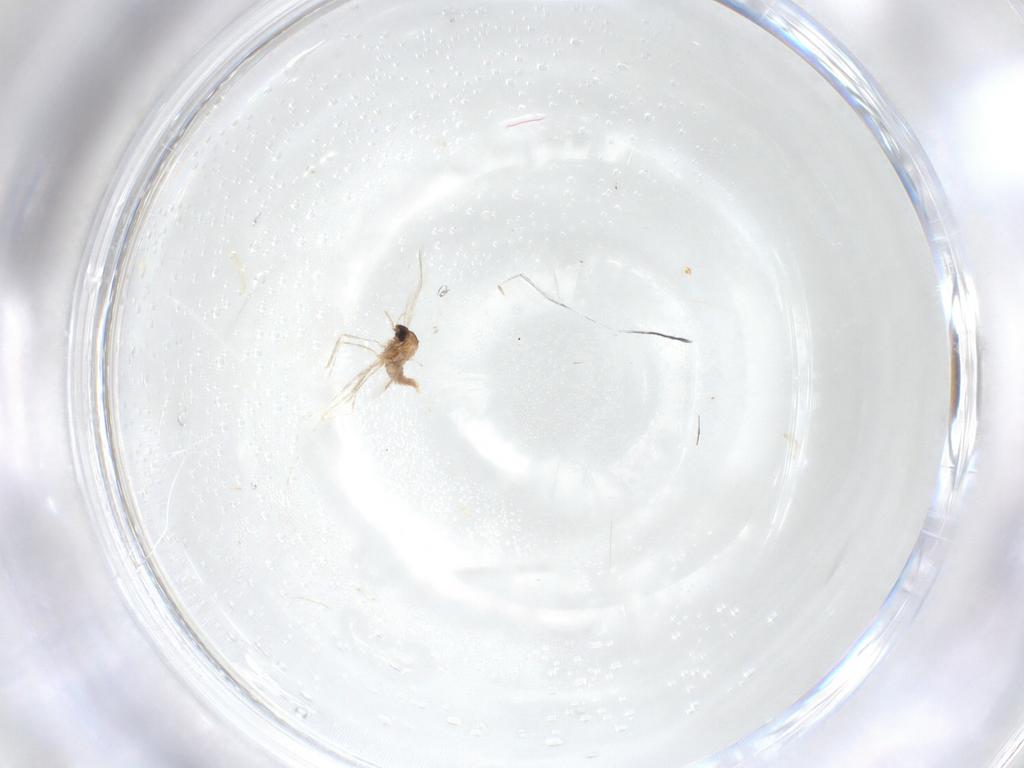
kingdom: Animalia
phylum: Arthropoda
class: Insecta
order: Diptera
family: Cecidomyiidae
